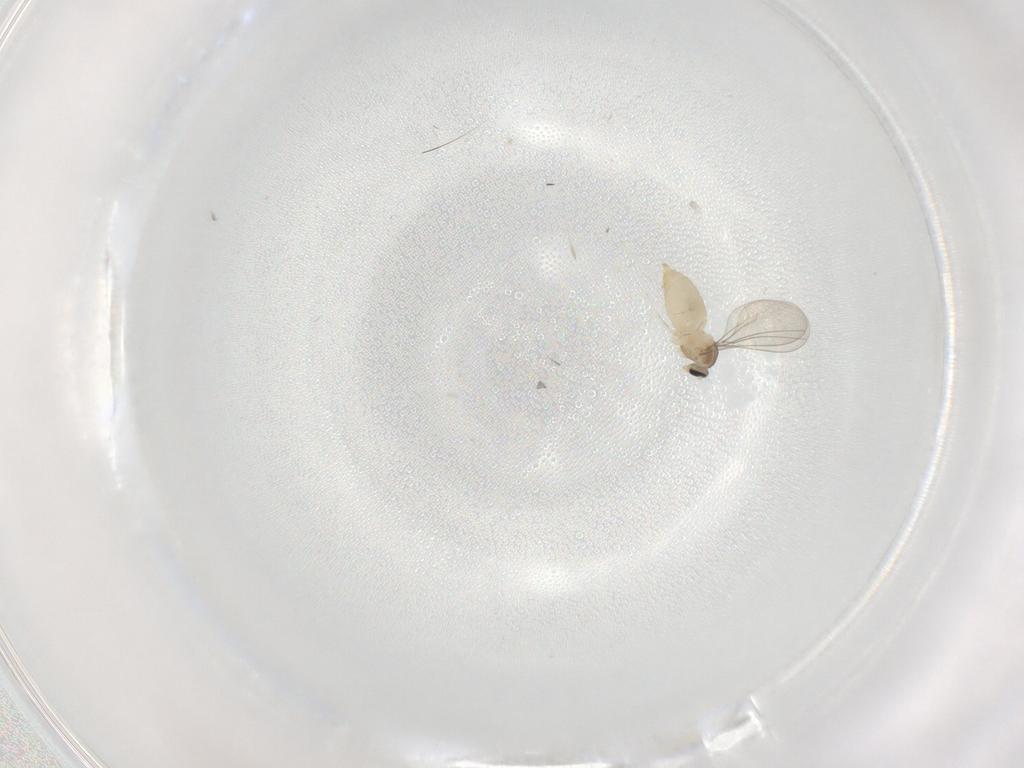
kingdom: Animalia
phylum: Arthropoda
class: Insecta
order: Diptera
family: Cecidomyiidae
